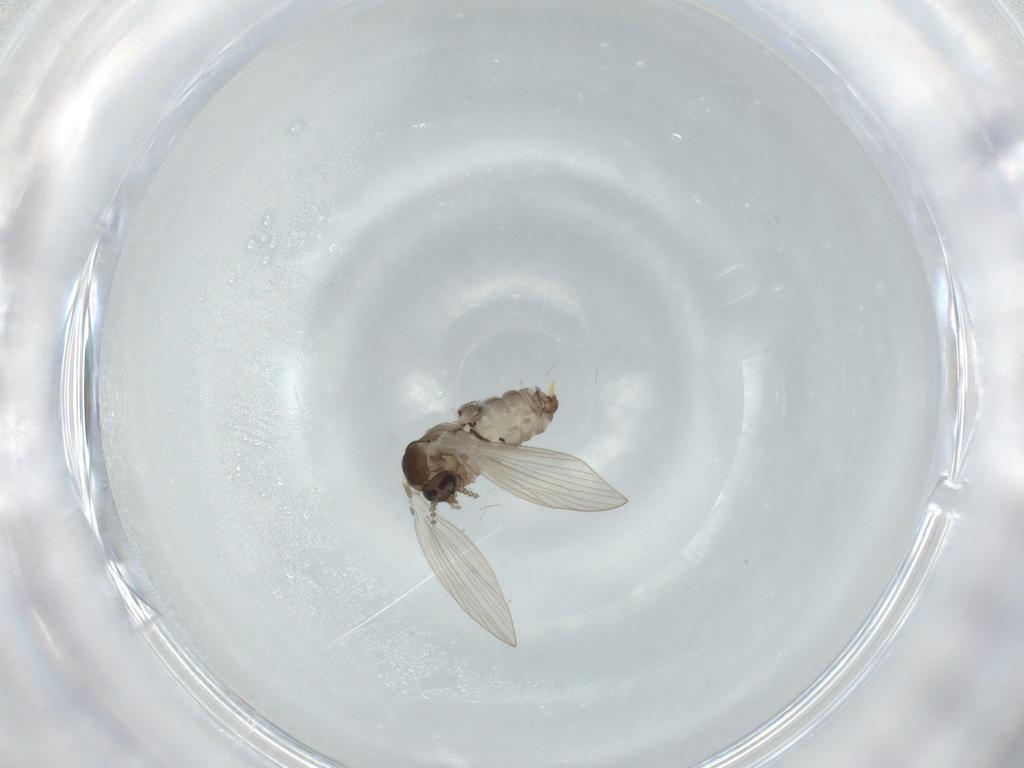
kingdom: Animalia
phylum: Arthropoda
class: Insecta
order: Diptera
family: Psychodidae
